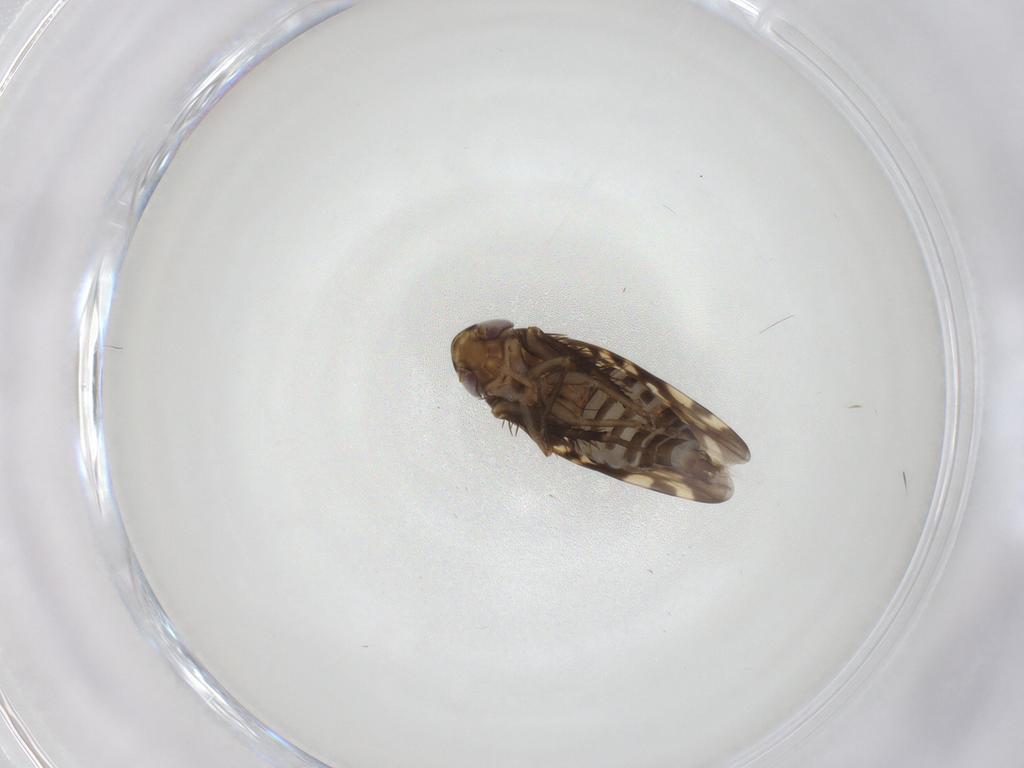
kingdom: Animalia
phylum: Arthropoda
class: Insecta
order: Hemiptera
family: Cicadellidae
